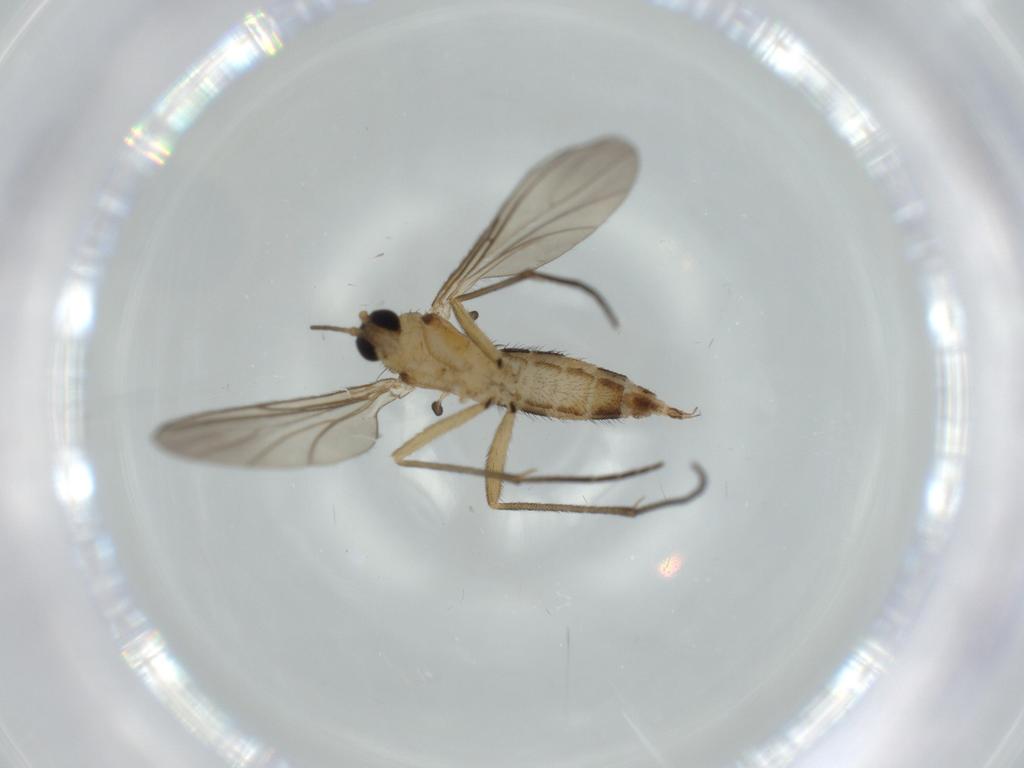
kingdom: Animalia
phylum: Arthropoda
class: Insecta
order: Diptera
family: Sciaridae
